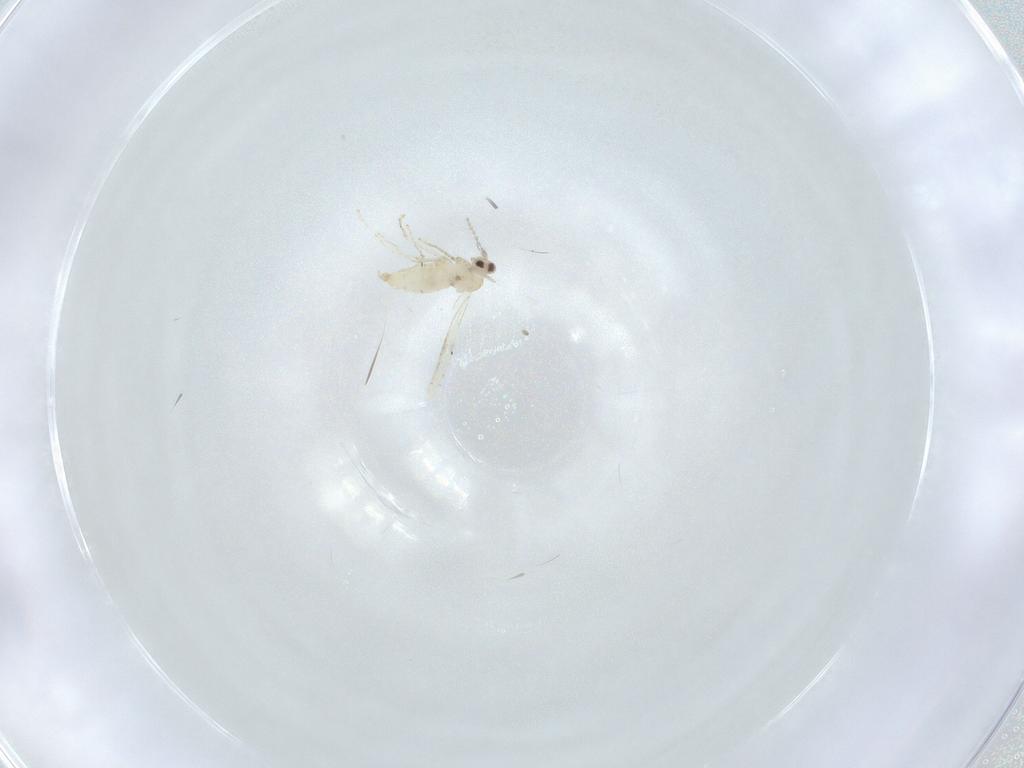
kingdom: Animalia
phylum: Arthropoda
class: Insecta
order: Diptera
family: Cecidomyiidae
